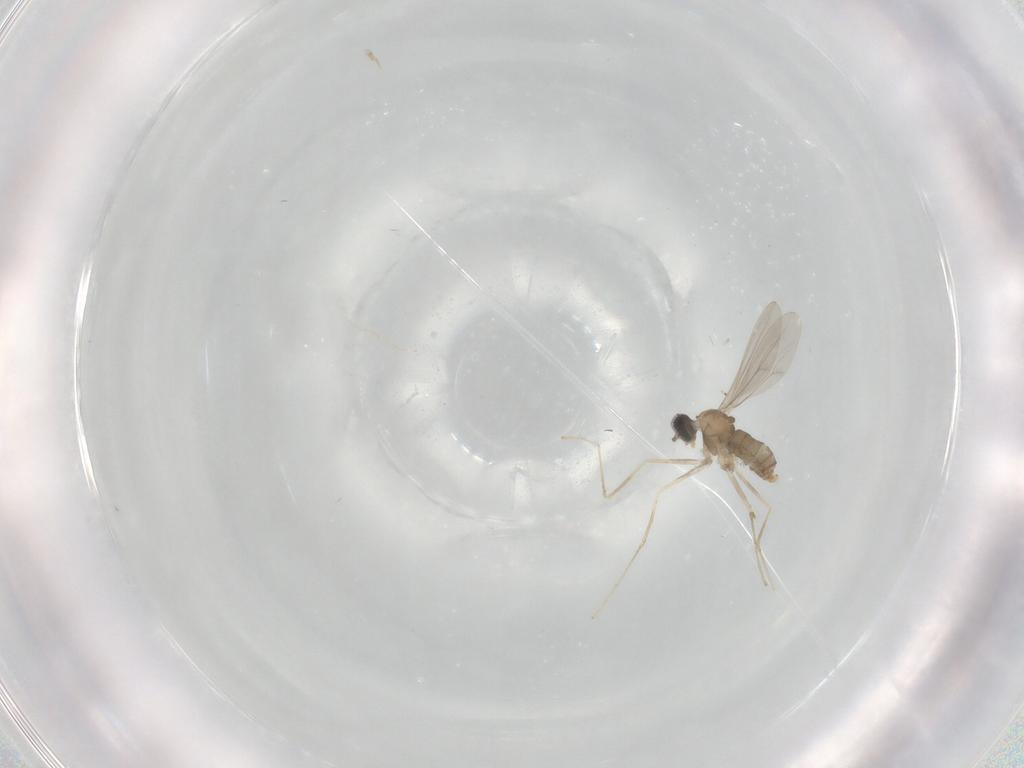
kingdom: Animalia
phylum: Arthropoda
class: Insecta
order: Diptera
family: Cecidomyiidae
